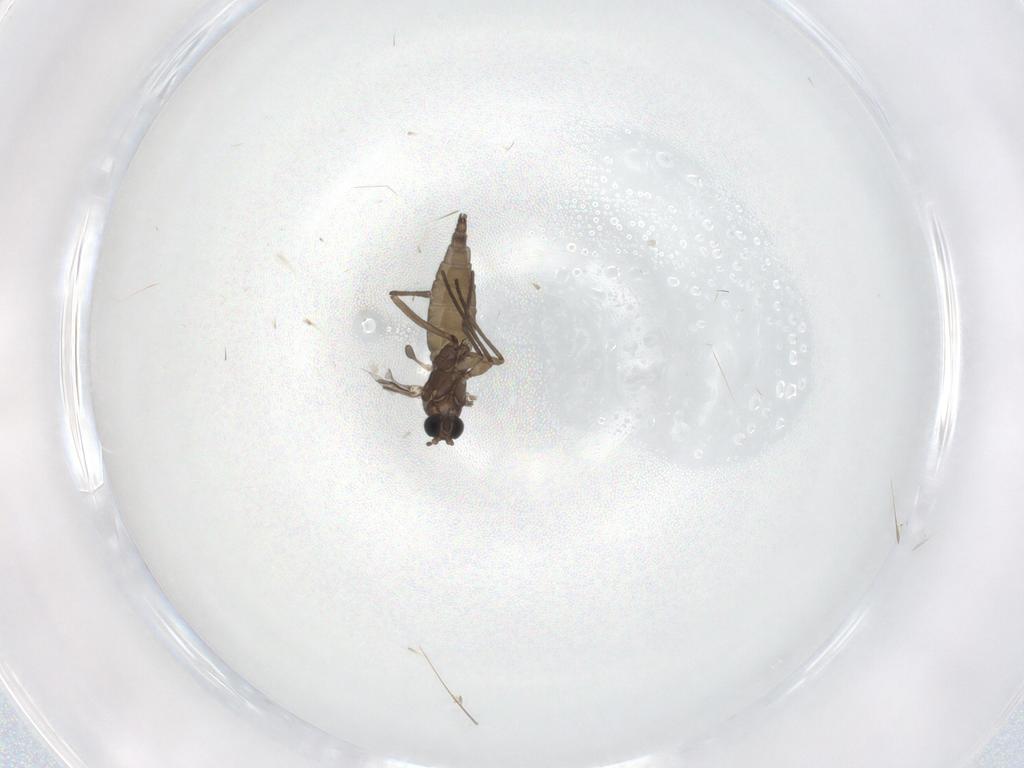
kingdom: Animalia
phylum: Arthropoda
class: Insecta
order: Diptera
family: Sciaridae
